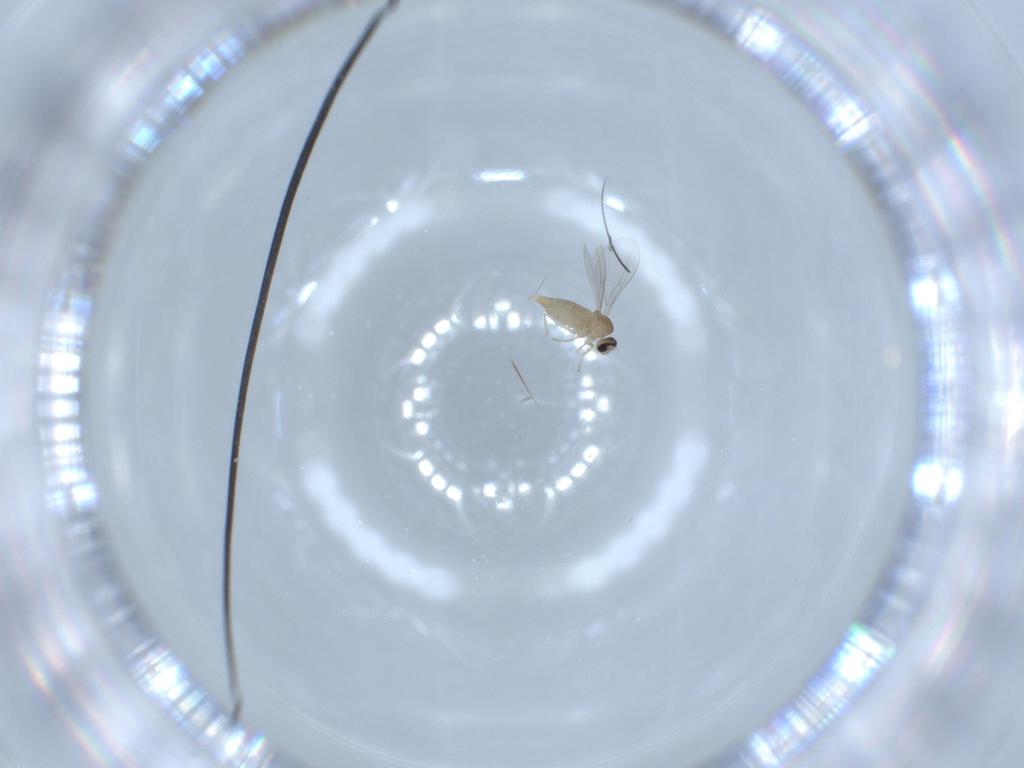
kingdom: Animalia
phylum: Arthropoda
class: Insecta
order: Diptera
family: Cecidomyiidae
